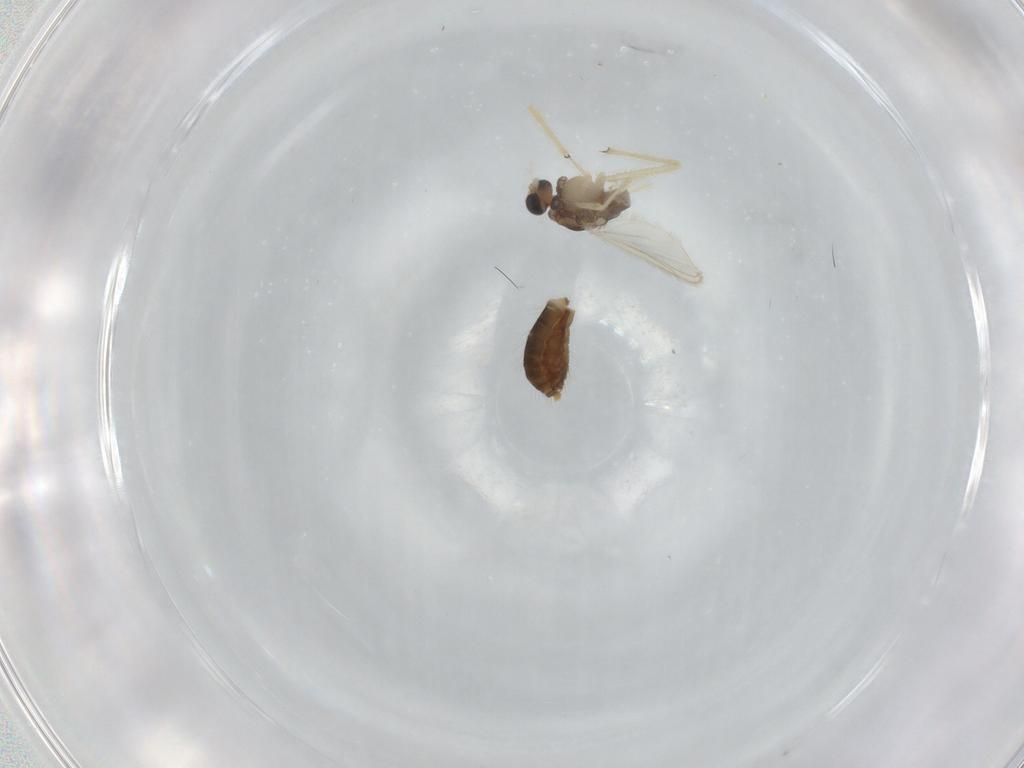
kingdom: Animalia
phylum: Arthropoda
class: Insecta
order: Diptera
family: Chironomidae
